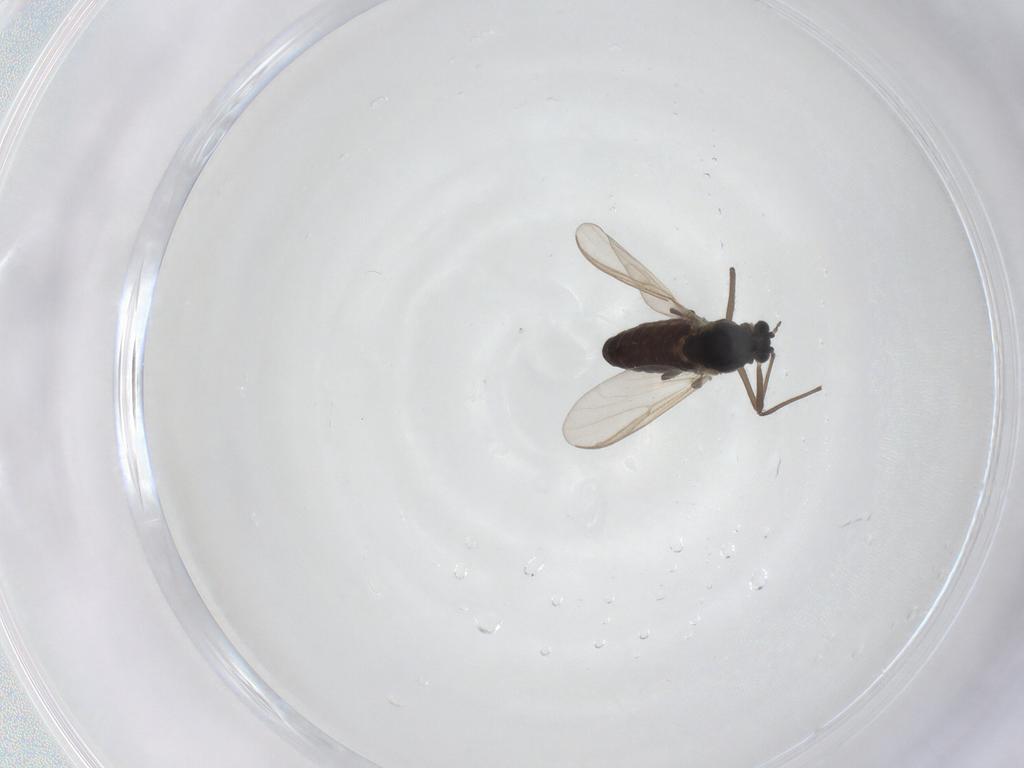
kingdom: Animalia
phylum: Arthropoda
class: Insecta
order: Diptera
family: Chironomidae
